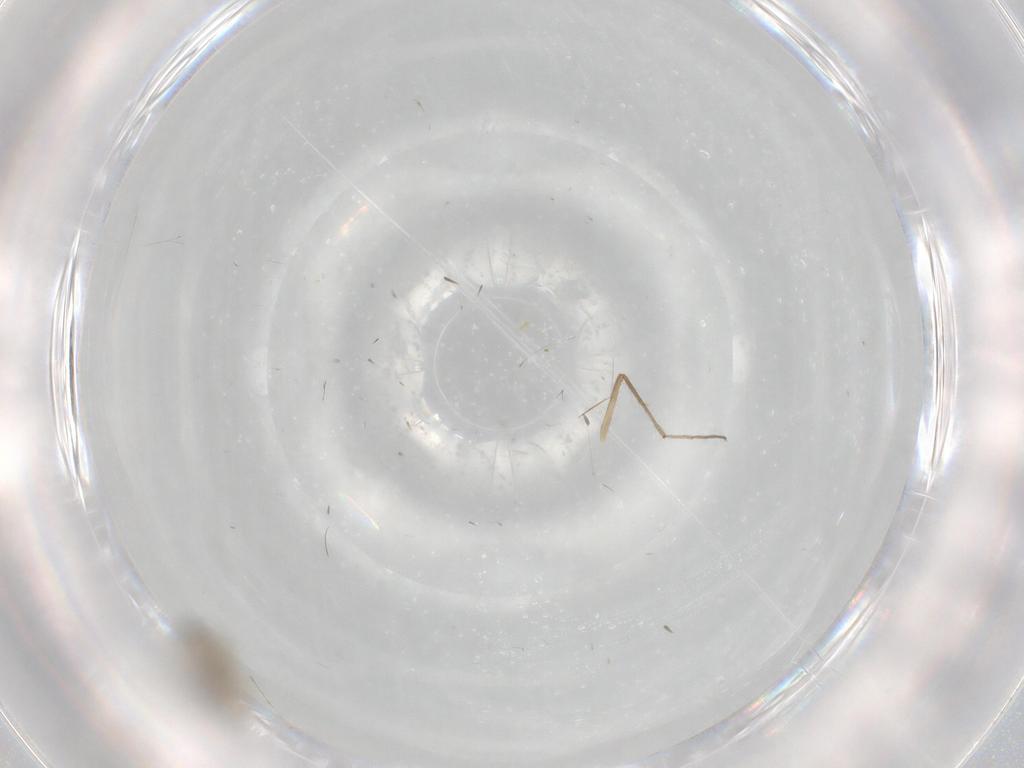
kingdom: Animalia
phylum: Arthropoda
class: Insecta
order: Diptera
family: Cecidomyiidae
